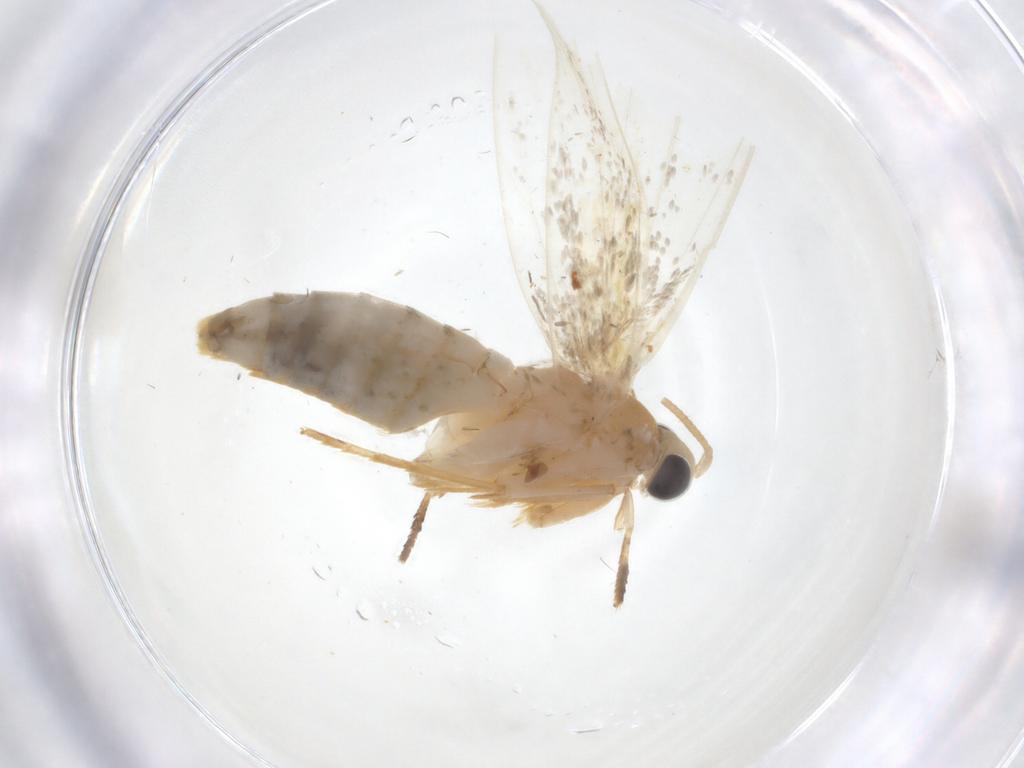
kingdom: Animalia
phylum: Arthropoda
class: Insecta
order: Lepidoptera
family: Tineidae
